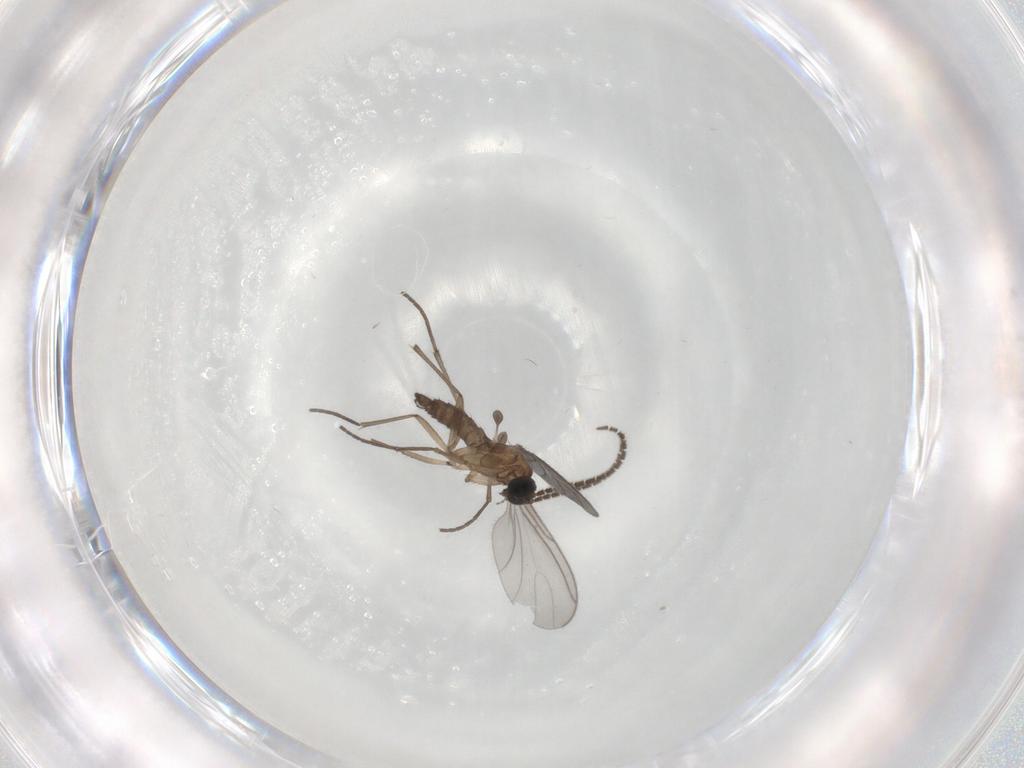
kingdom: Animalia
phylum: Arthropoda
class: Insecta
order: Diptera
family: Sciaridae
